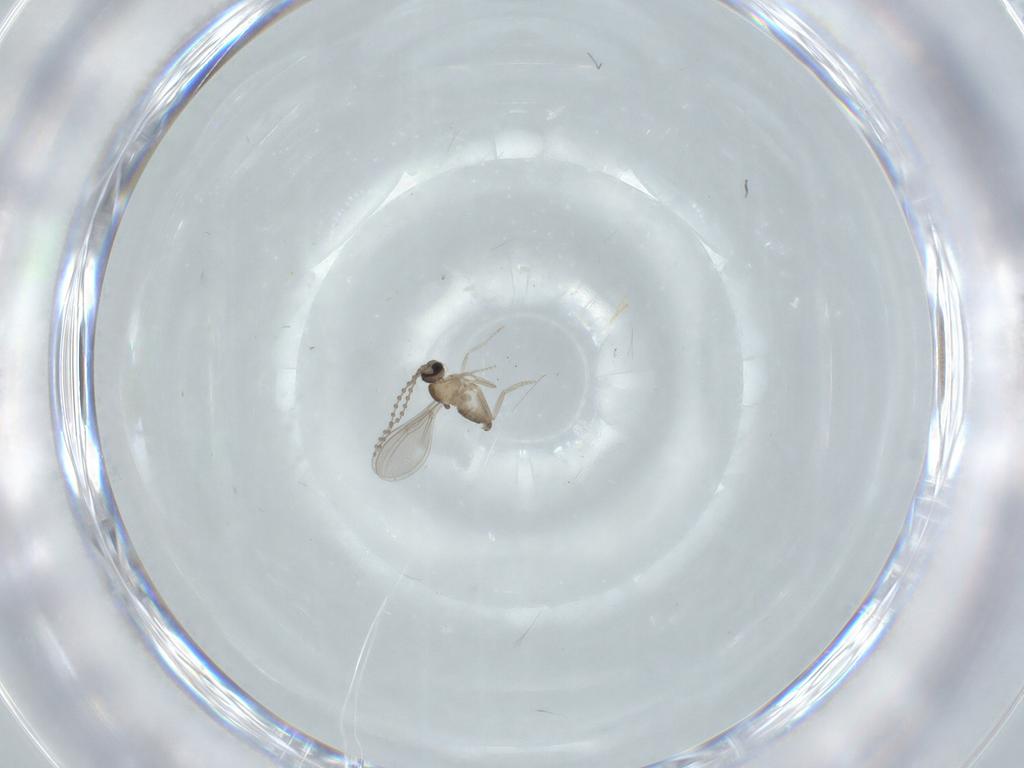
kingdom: Animalia
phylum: Arthropoda
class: Insecta
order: Diptera
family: Cecidomyiidae
